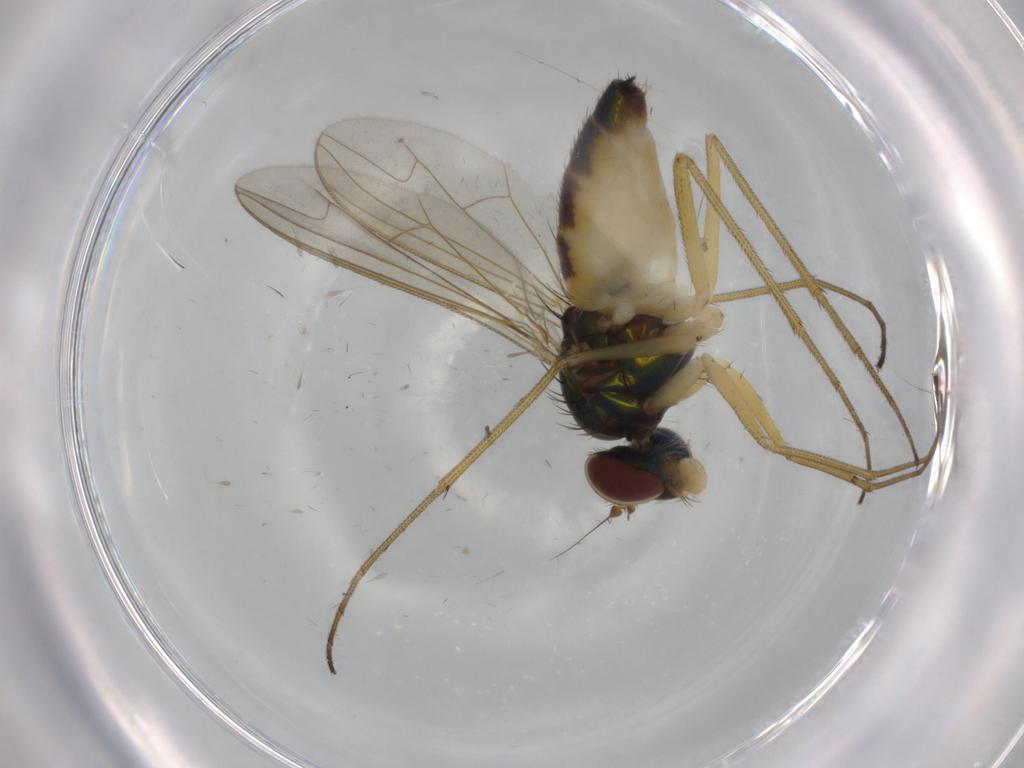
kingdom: Animalia
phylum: Arthropoda
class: Insecta
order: Diptera
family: Dolichopodidae
